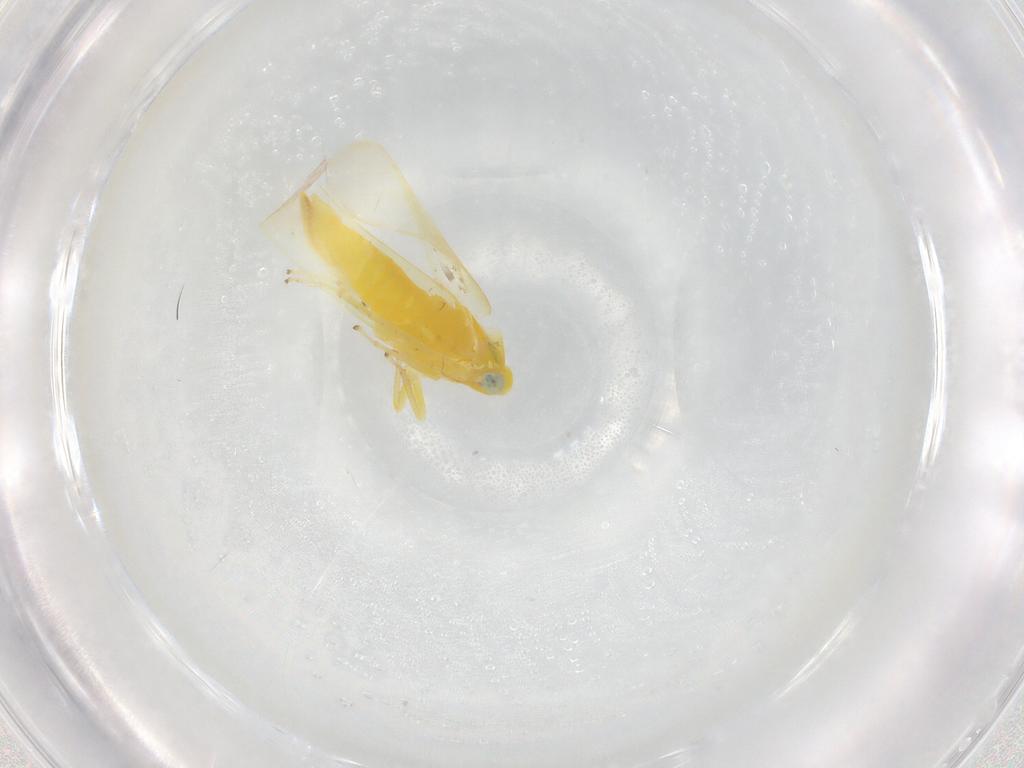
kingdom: Animalia
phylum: Arthropoda
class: Insecta
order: Hemiptera
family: Cicadellidae
